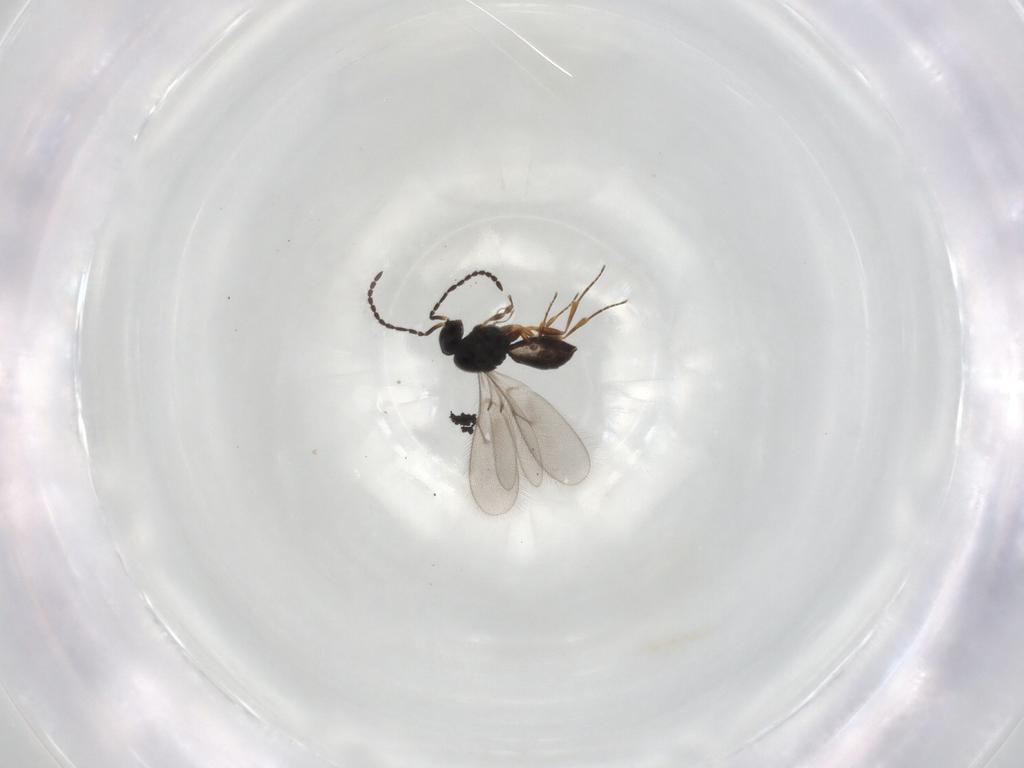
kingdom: Animalia
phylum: Arthropoda
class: Insecta
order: Hymenoptera
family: Scelionidae
